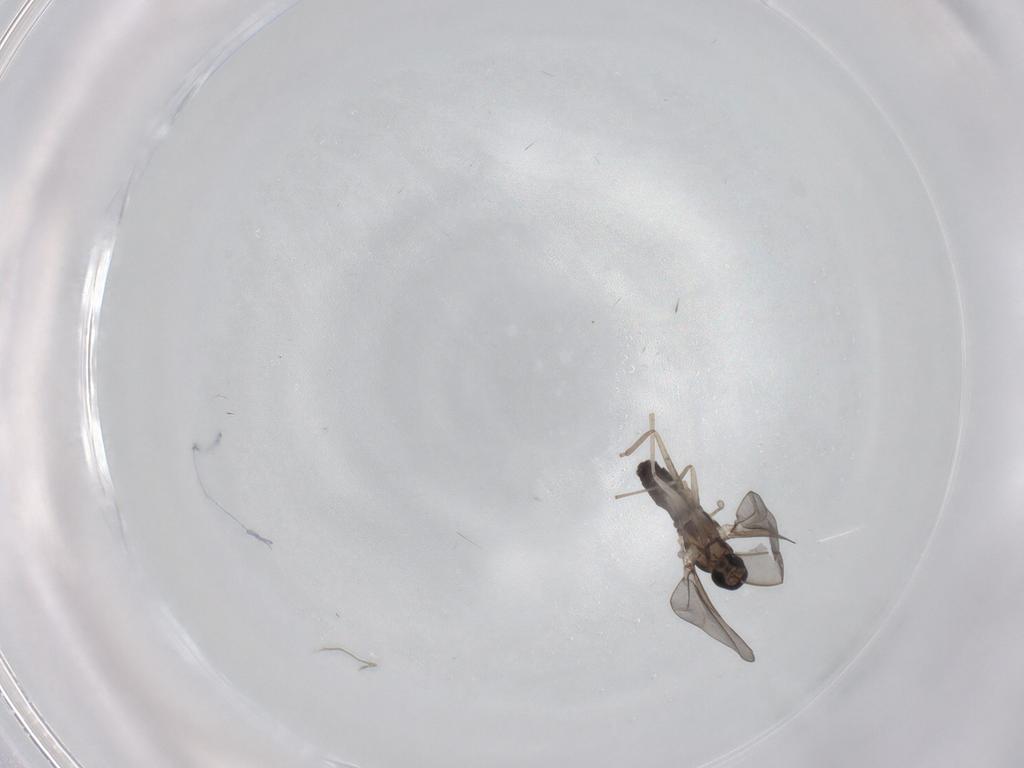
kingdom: Animalia
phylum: Arthropoda
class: Insecta
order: Diptera
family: Cecidomyiidae
